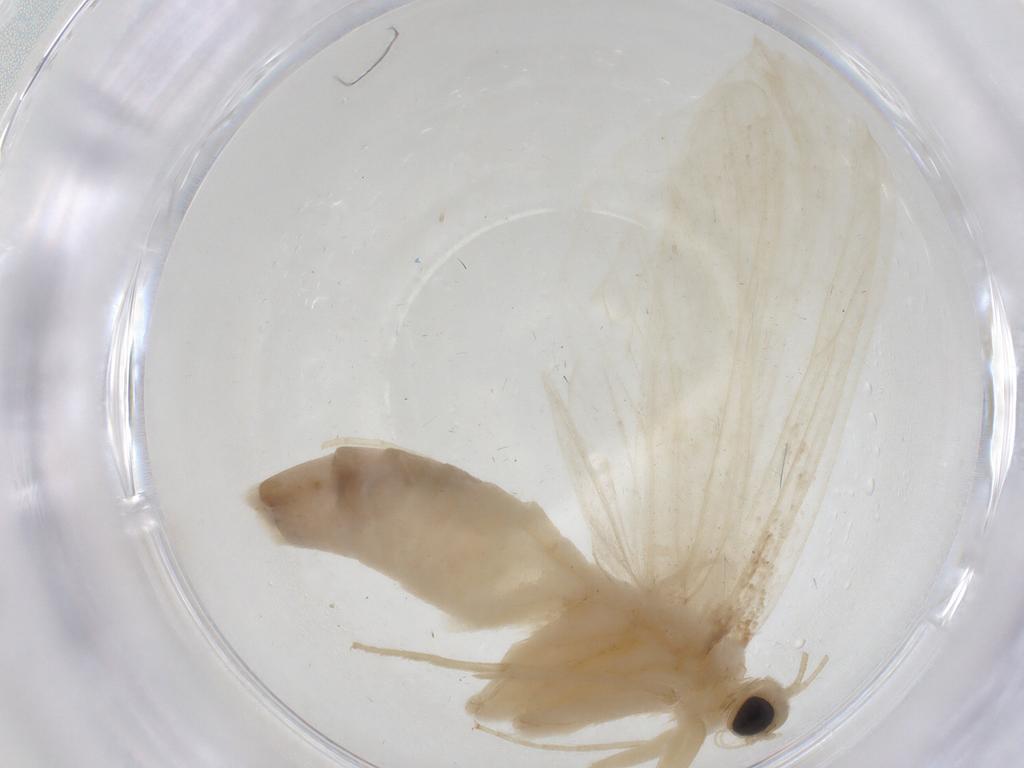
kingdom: Animalia
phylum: Arthropoda
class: Insecta
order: Lepidoptera
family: Crambidae
